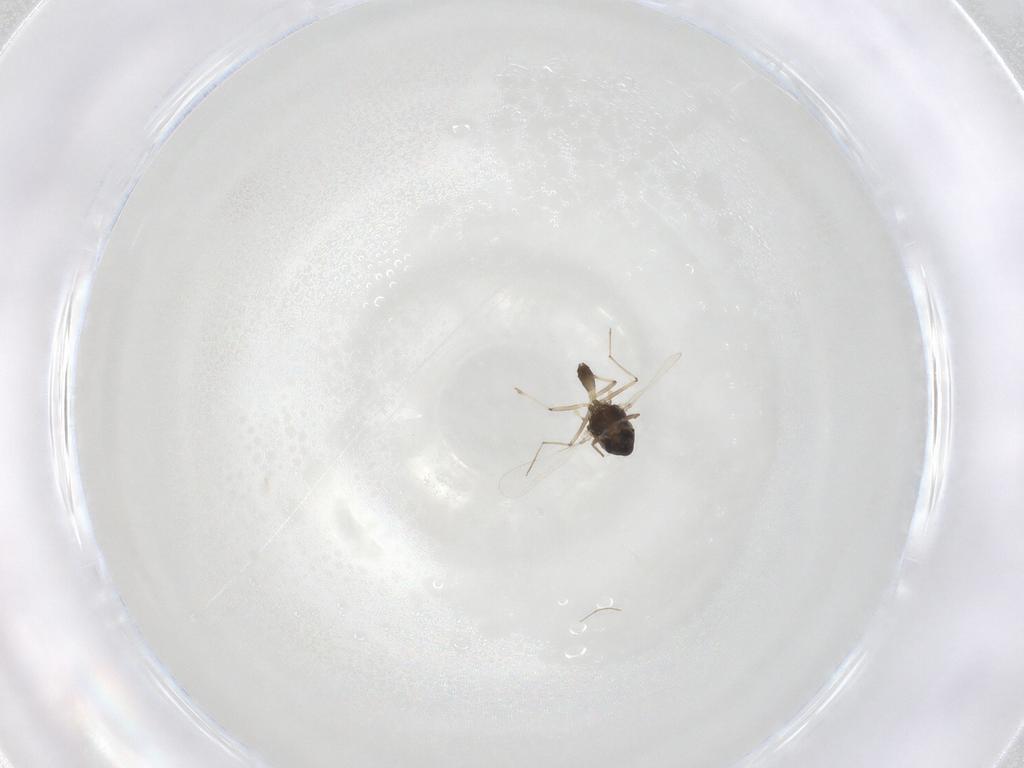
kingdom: Animalia
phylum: Arthropoda
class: Insecta
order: Diptera
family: Chironomidae
